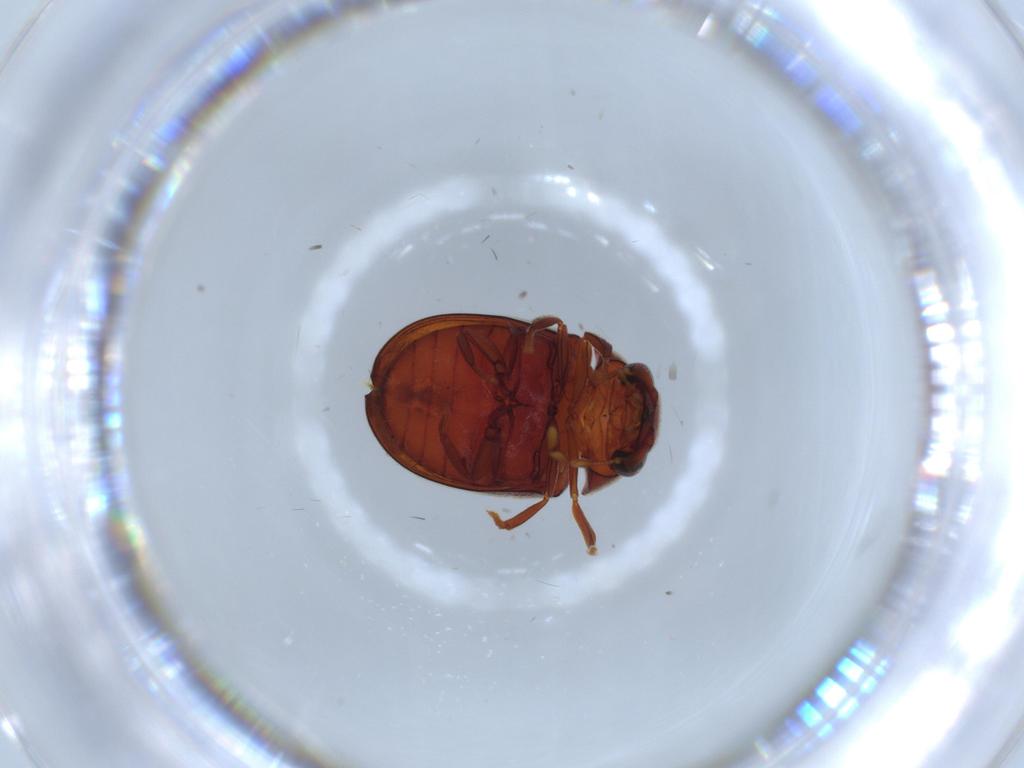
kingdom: Animalia
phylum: Arthropoda
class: Insecta
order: Coleoptera
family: Ptinidae
